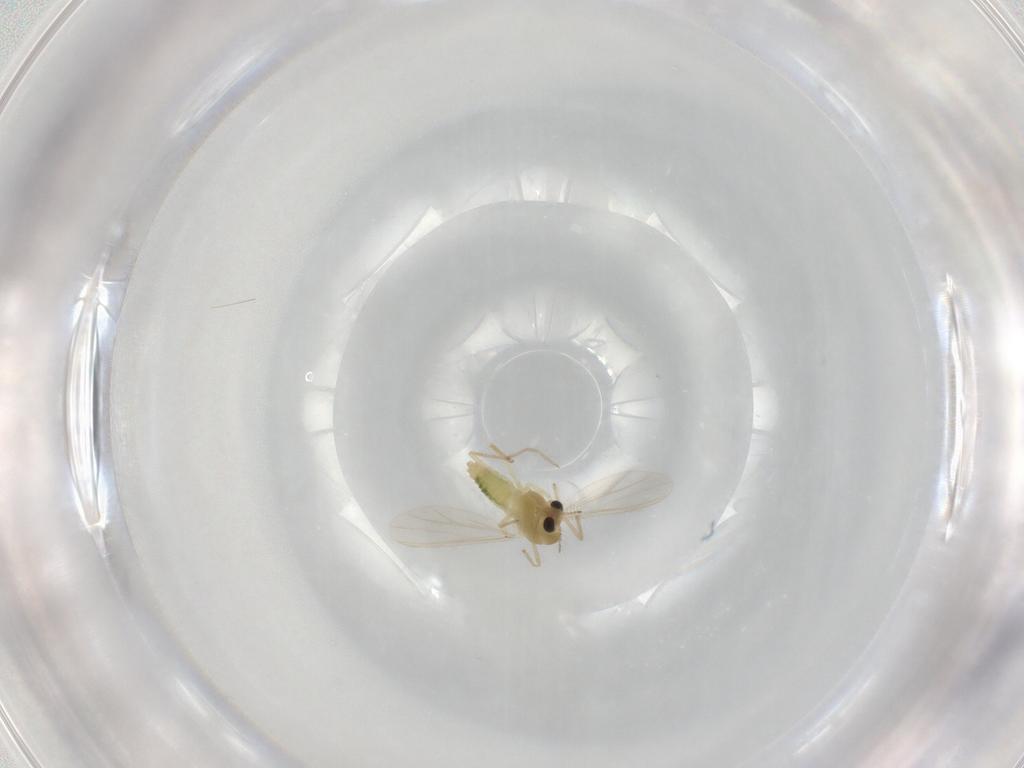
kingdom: Animalia
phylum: Arthropoda
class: Insecta
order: Diptera
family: Chironomidae
